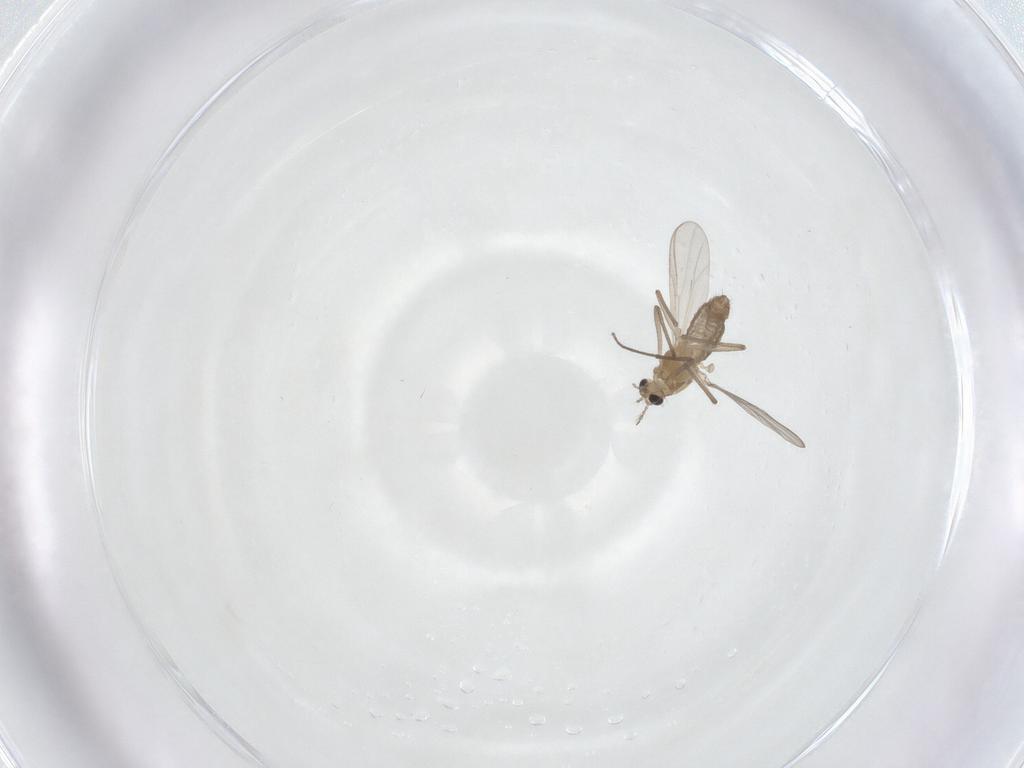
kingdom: Animalia
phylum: Arthropoda
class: Insecta
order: Diptera
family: Chironomidae
